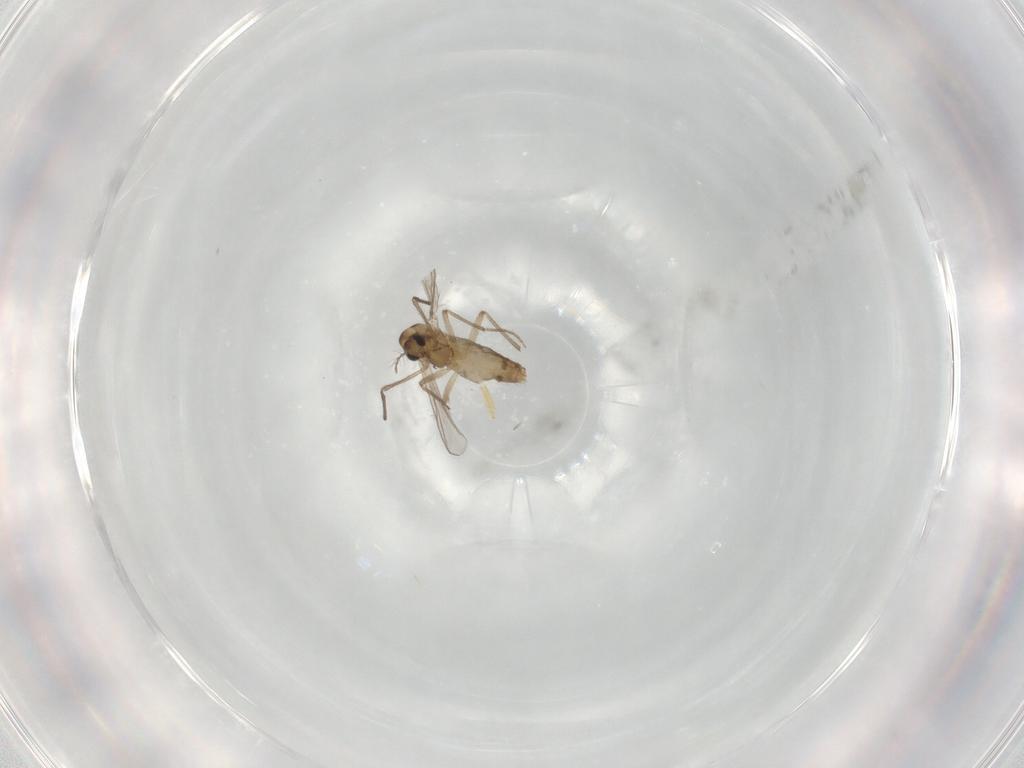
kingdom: Animalia
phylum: Arthropoda
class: Insecta
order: Diptera
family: Chironomidae
